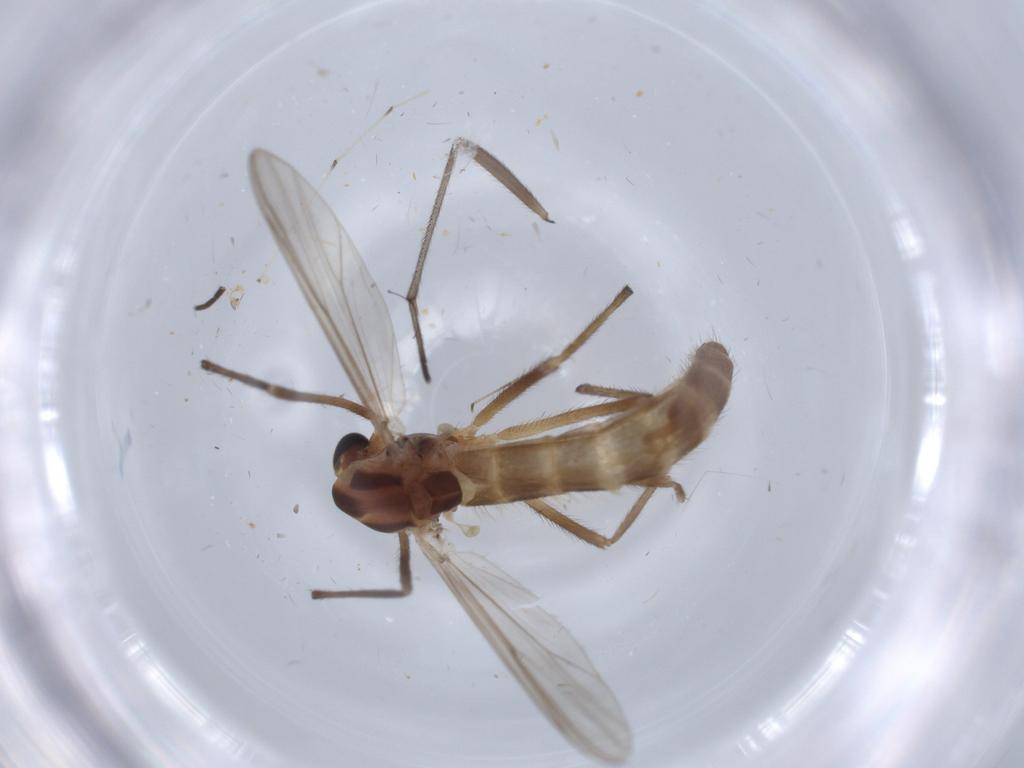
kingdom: Animalia
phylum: Arthropoda
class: Insecta
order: Diptera
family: Chironomidae
